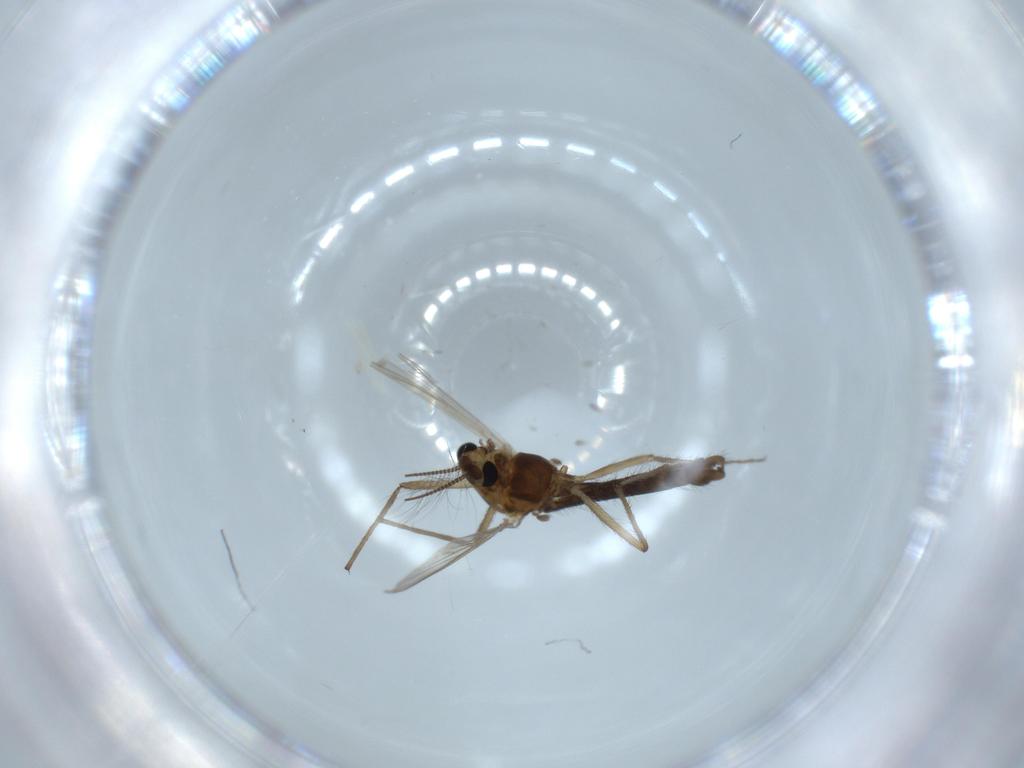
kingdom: Animalia
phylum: Arthropoda
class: Insecta
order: Diptera
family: Chironomidae
